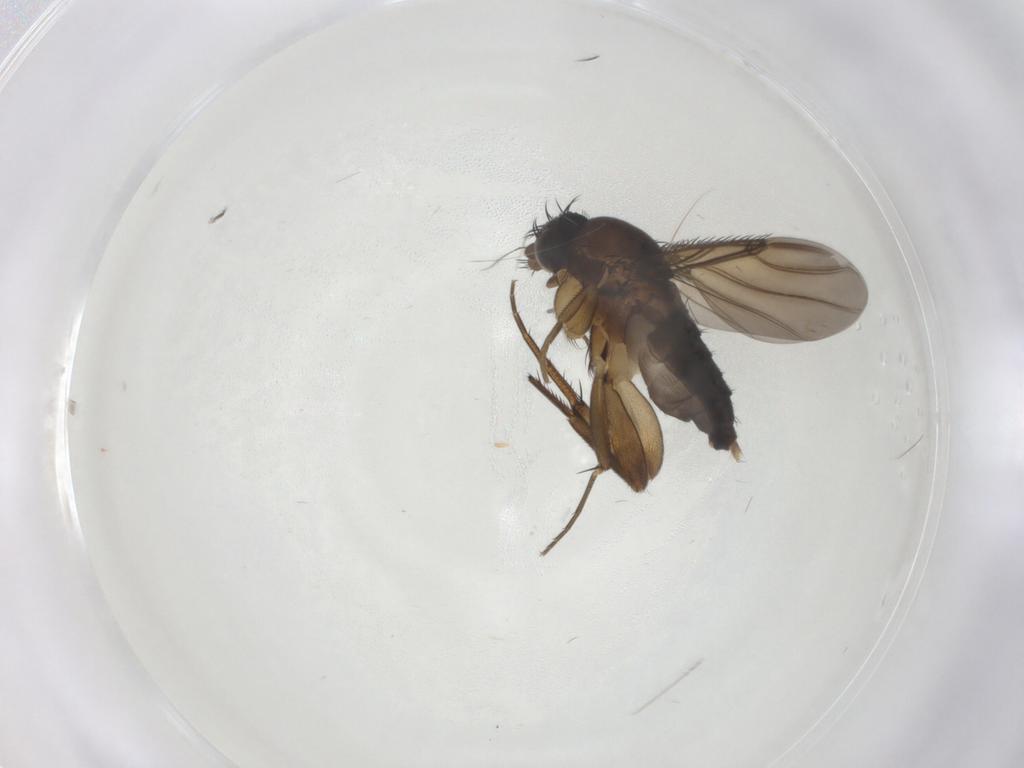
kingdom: Animalia
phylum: Arthropoda
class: Insecta
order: Diptera
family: Phoridae
